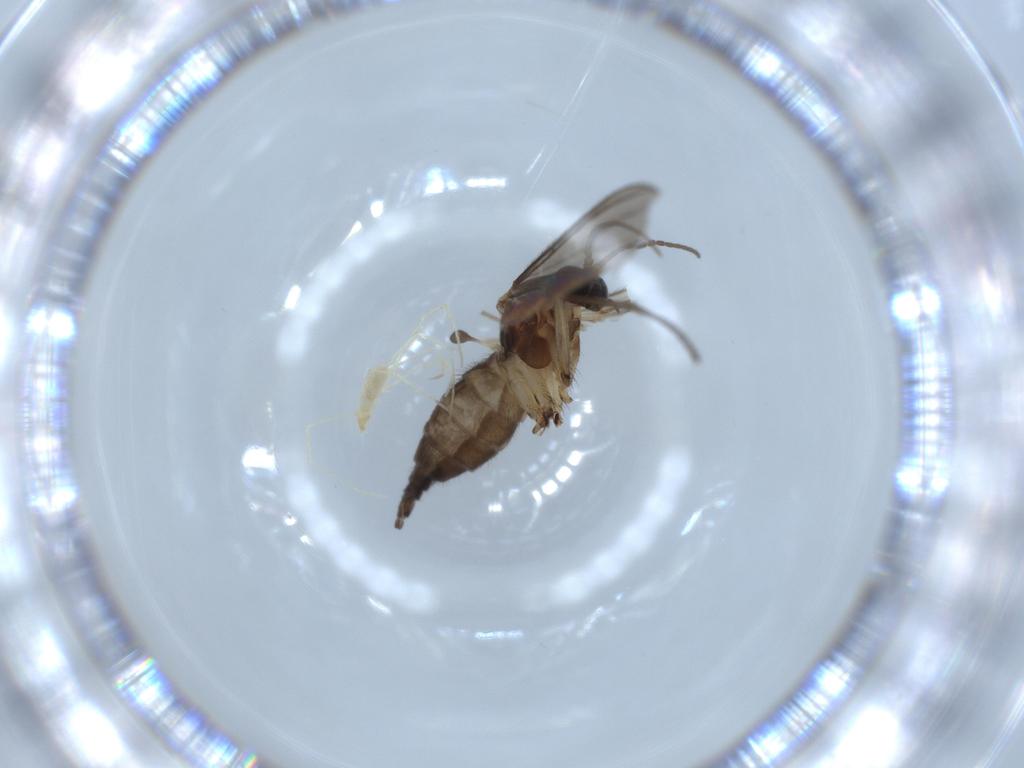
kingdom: Animalia
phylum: Arthropoda
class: Insecta
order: Diptera
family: Sciaridae
